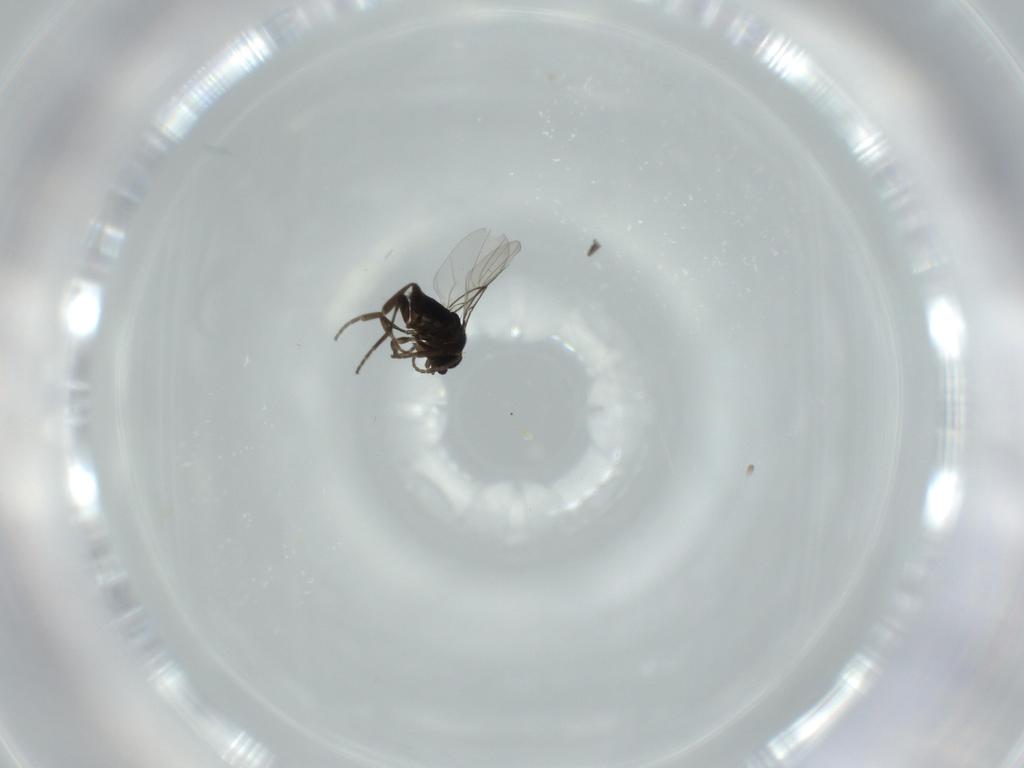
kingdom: Animalia
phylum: Arthropoda
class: Insecta
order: Diptera
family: Phoridae
